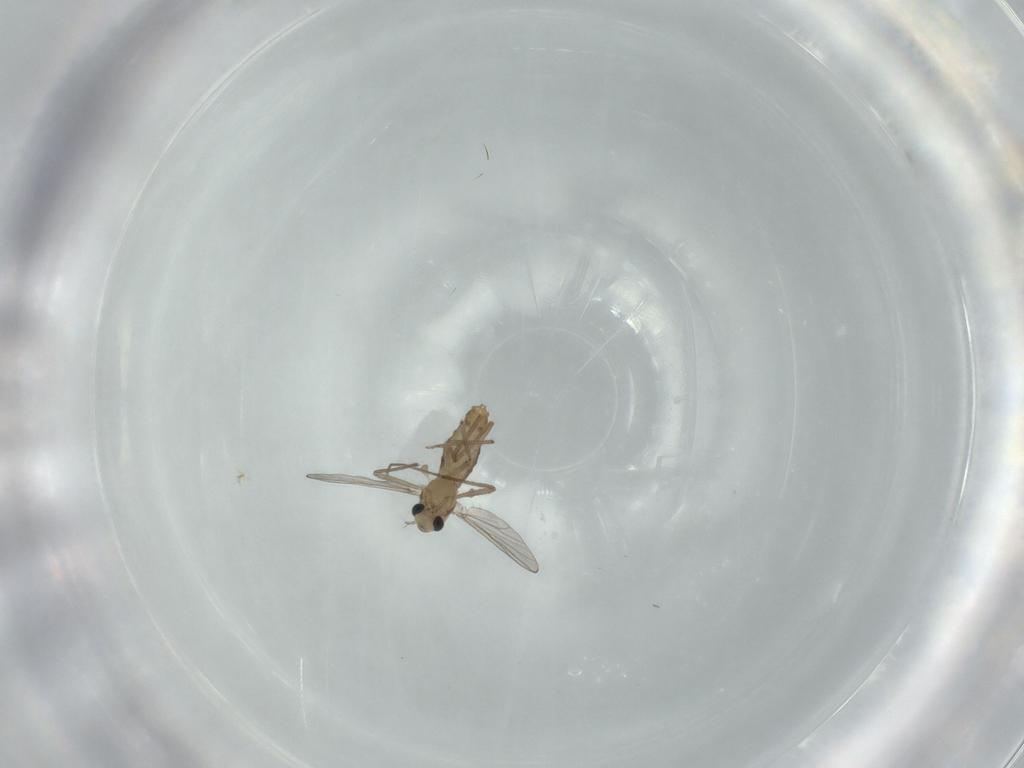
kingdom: Animalia
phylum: Arthropoda
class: Insecta
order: Diptera
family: Chironomidae
